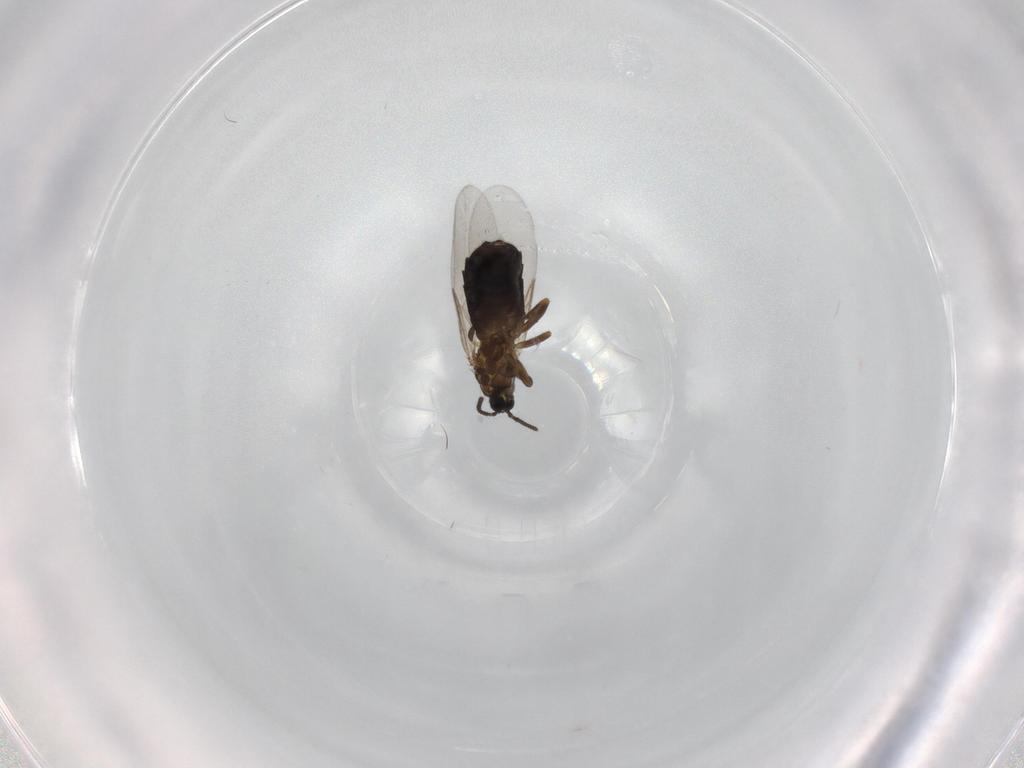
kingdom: Animalia
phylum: Arthropoda
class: Insecta
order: Diptera
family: Scatopsidae
